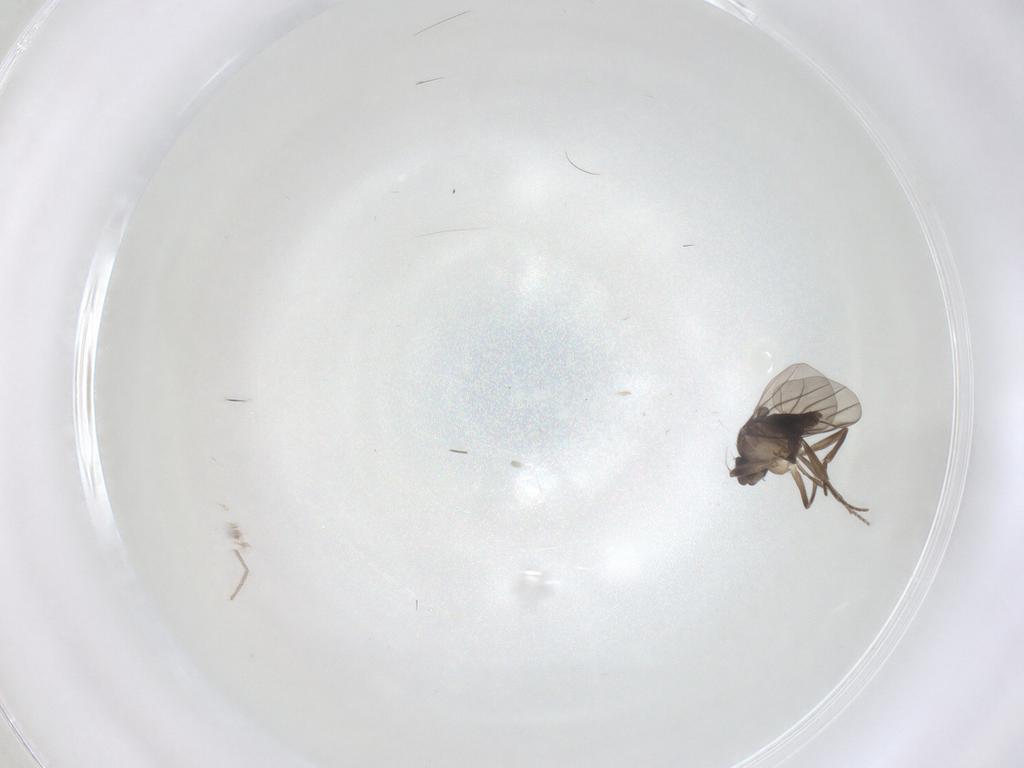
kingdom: Animalia
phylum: Arthropoda
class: Insecta
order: Diptera
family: Phoridae
